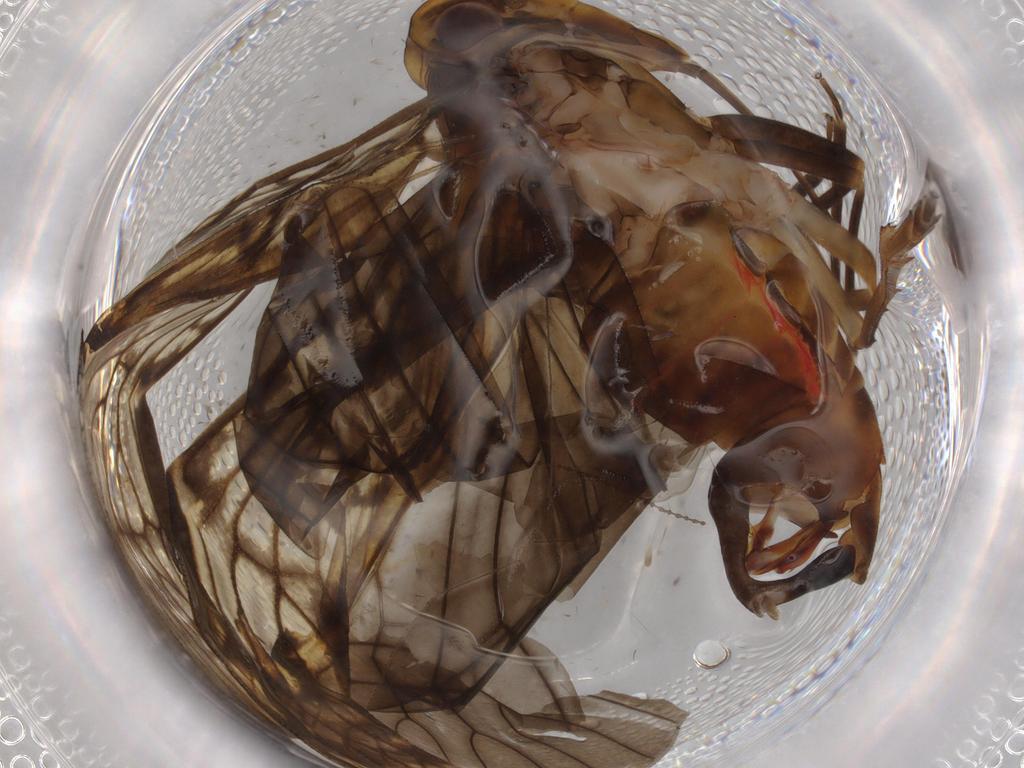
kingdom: Animalia
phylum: Arthropoda
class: Insecta
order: Hemiptera
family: Cixiidae
